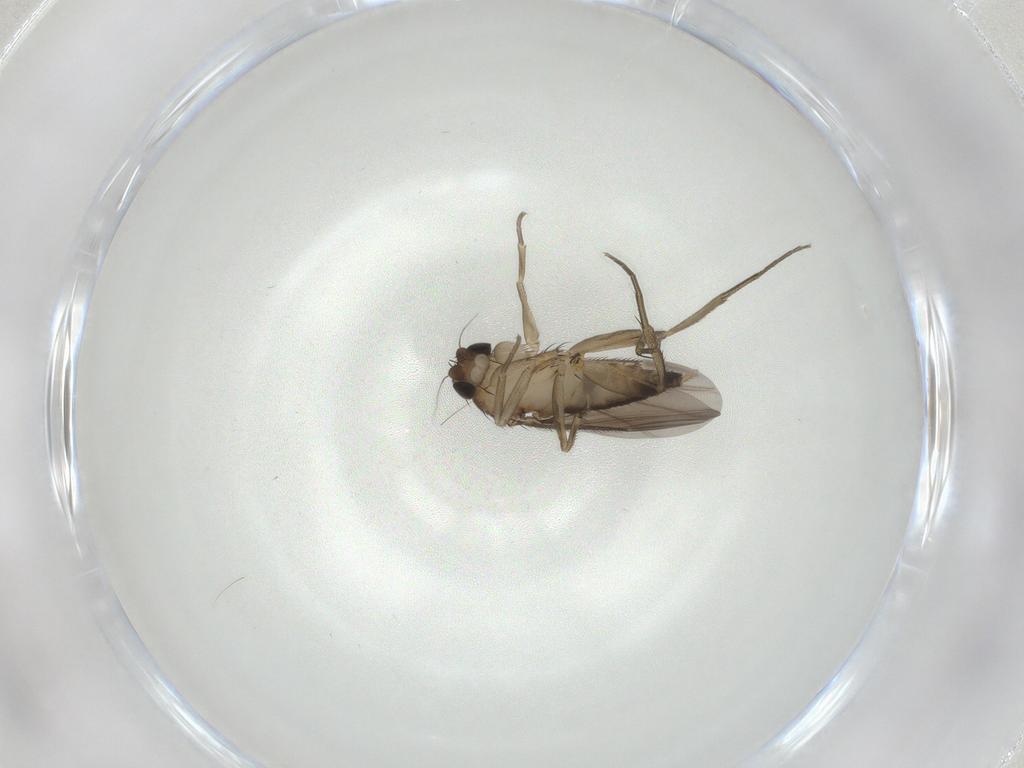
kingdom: Animalia
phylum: Arthropoda
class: Insecta
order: Diptera
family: Phoridae
